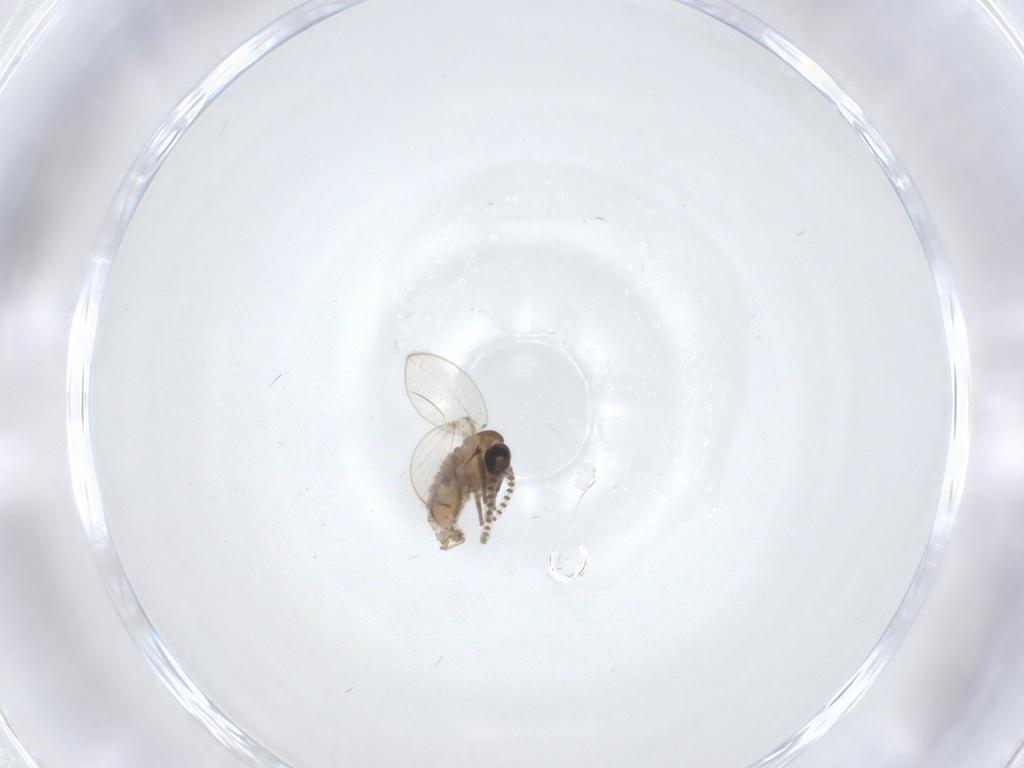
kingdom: Animalia
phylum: Arthropoda
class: Insecta
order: Diptera
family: Psychodidae
